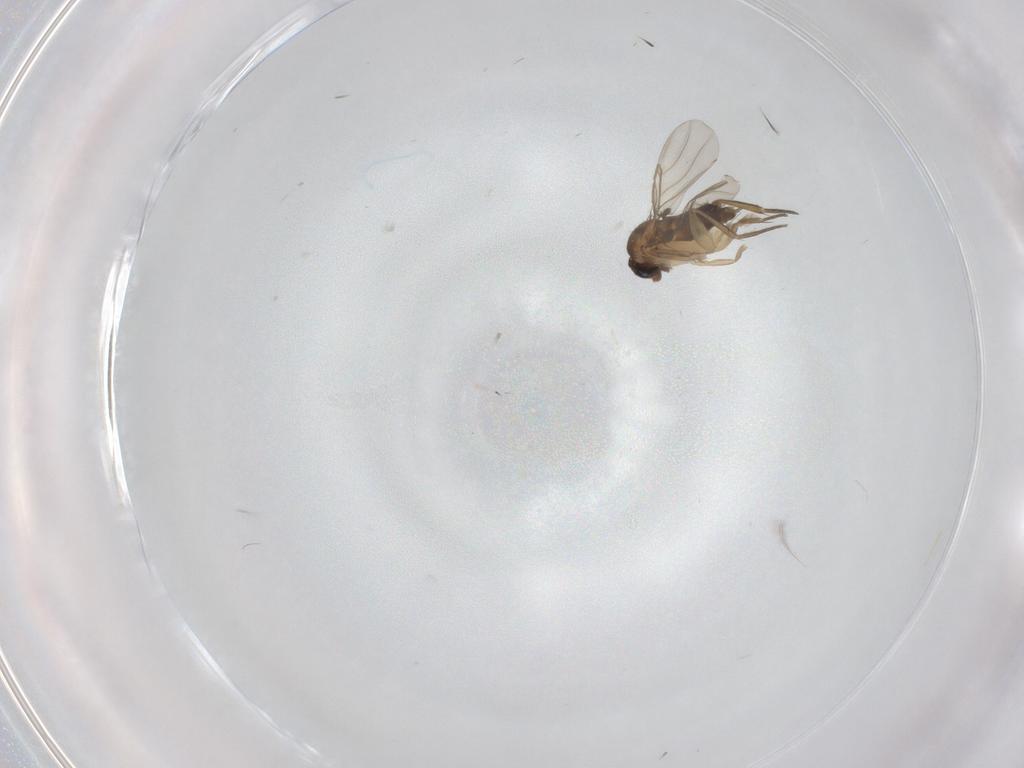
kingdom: Animalia
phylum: Arthropoda
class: Insecta
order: Diptera
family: Phoridae
